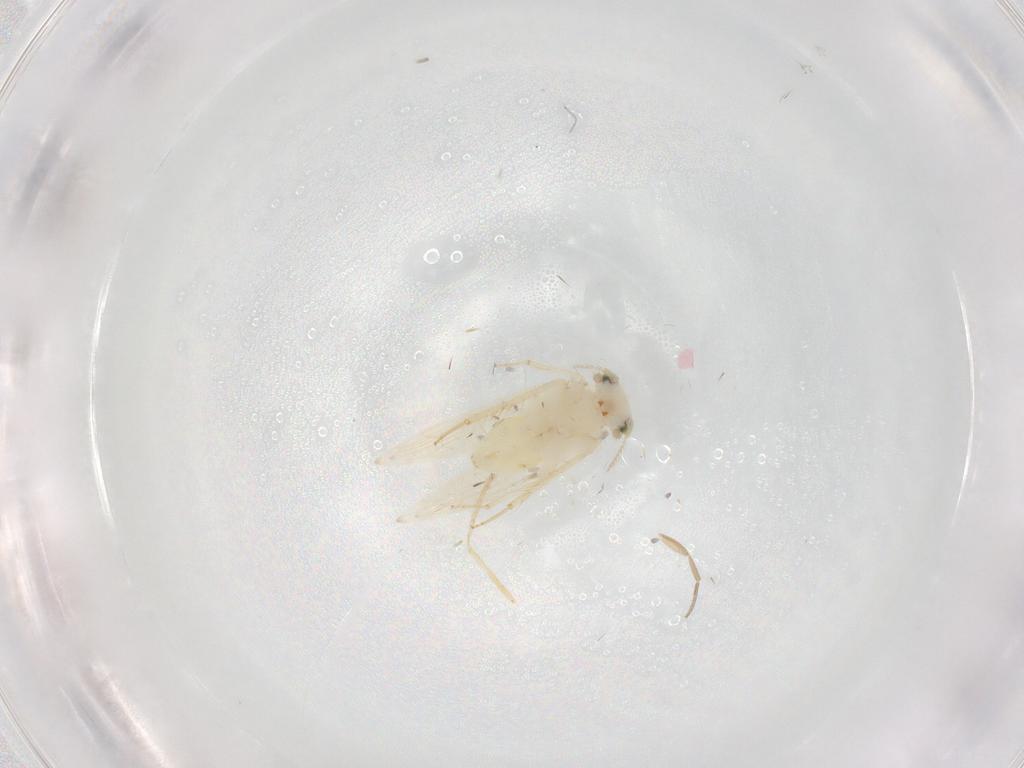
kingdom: Animalia
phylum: Arthropoda
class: Insecta
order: Psocodea
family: Lepidopsocidae
